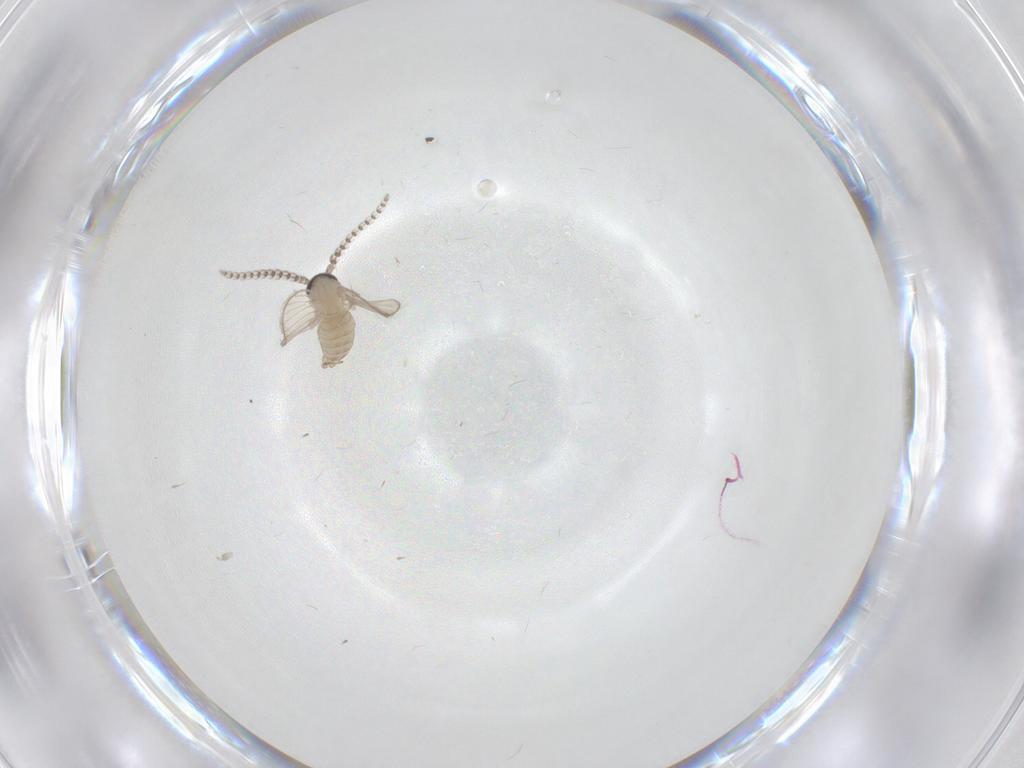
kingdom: Animalia
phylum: Arthropoda
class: Insecta
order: Diptera
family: Psychodidae
